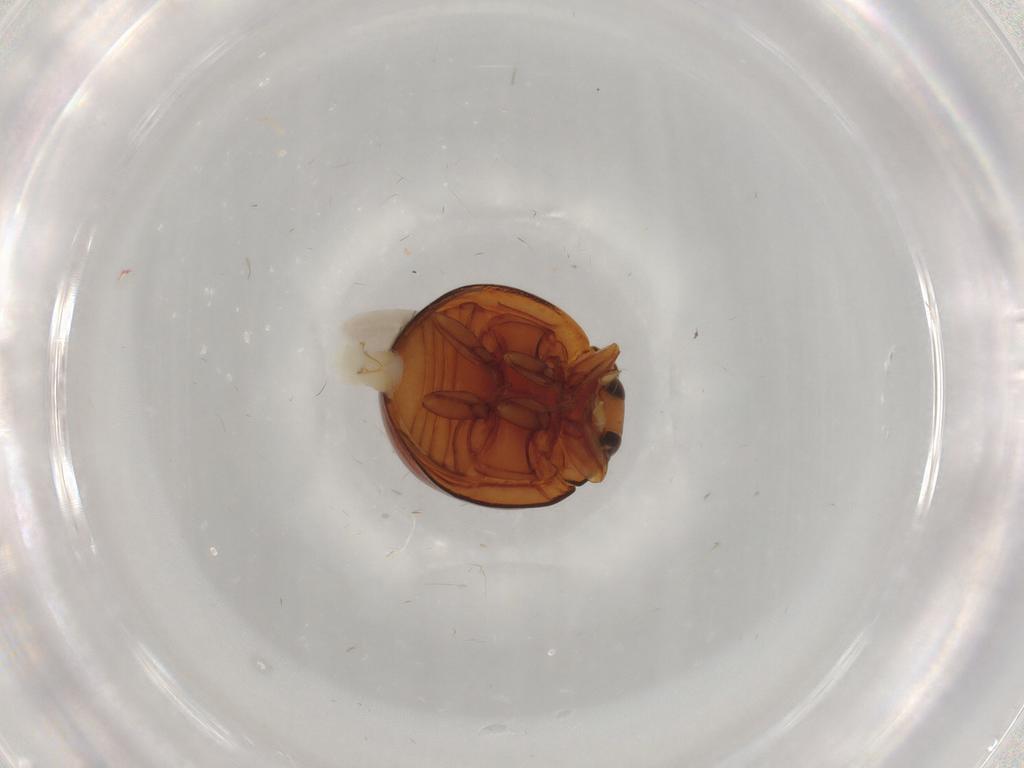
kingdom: Animalia
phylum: Arthropoda
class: Insecta
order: Coleoptera
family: Coccinellidae
